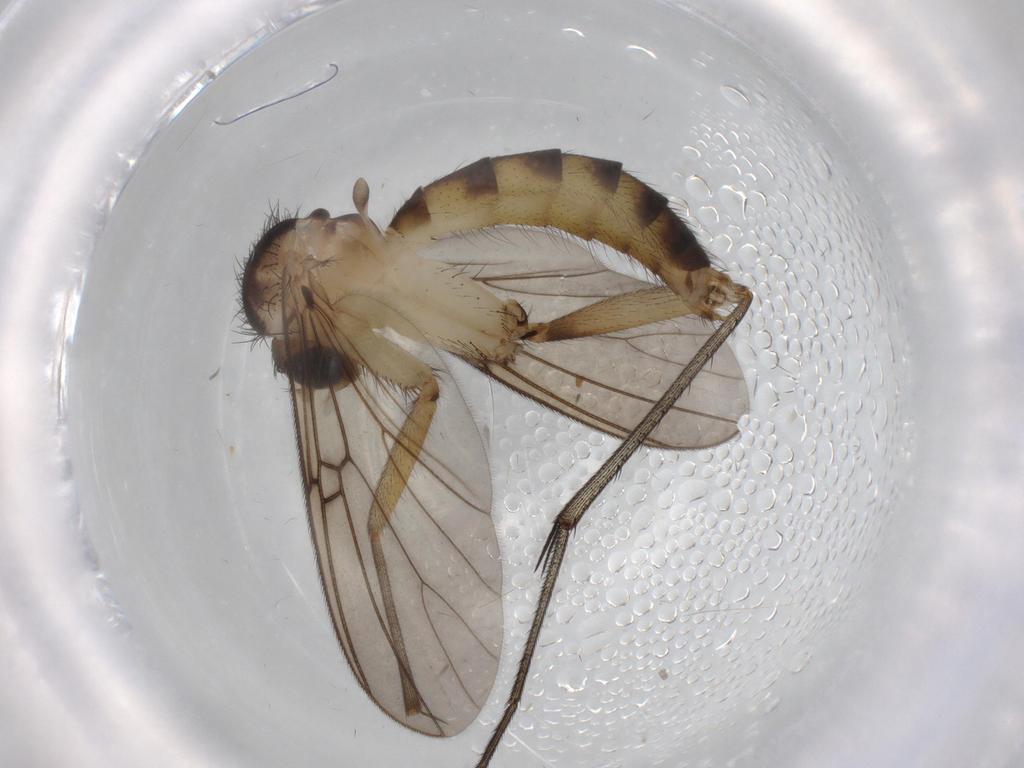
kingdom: Animalia
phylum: Arthropoda
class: Insecta
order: Diptera
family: Cecidomyiidae
